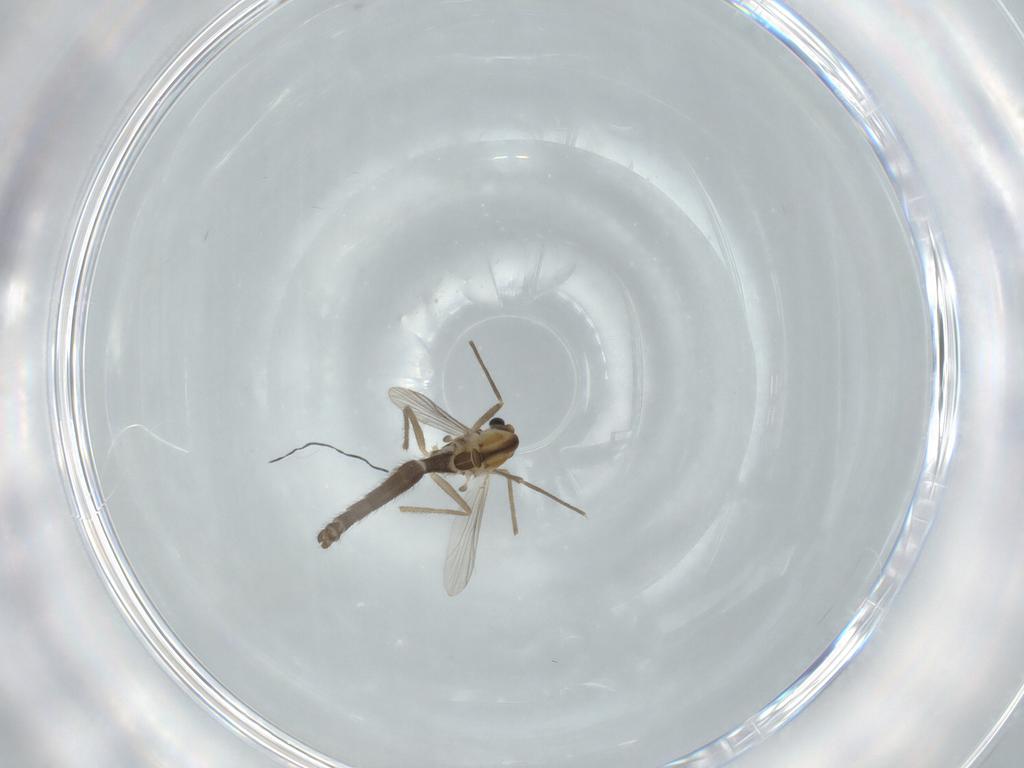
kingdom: Animalia
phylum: Arthropoda
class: Insecta
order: Diptera
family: Chironomidae
